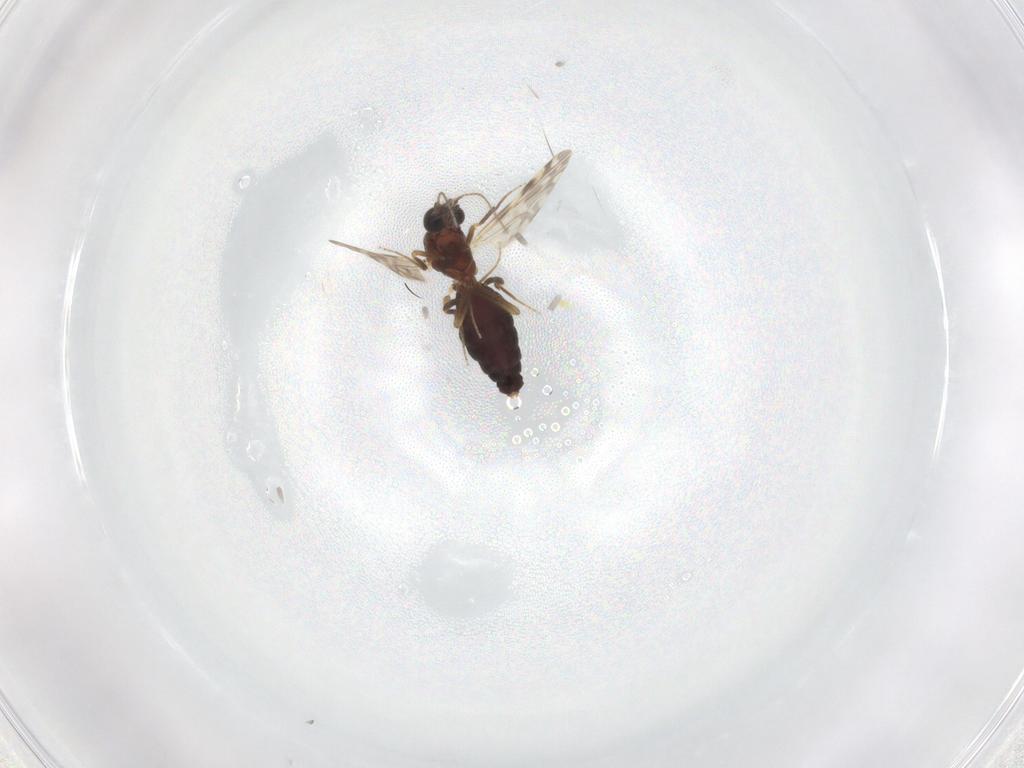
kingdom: Animalia
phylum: Arthropoda
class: Insecta
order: Diptera
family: Ceratopogonidae
